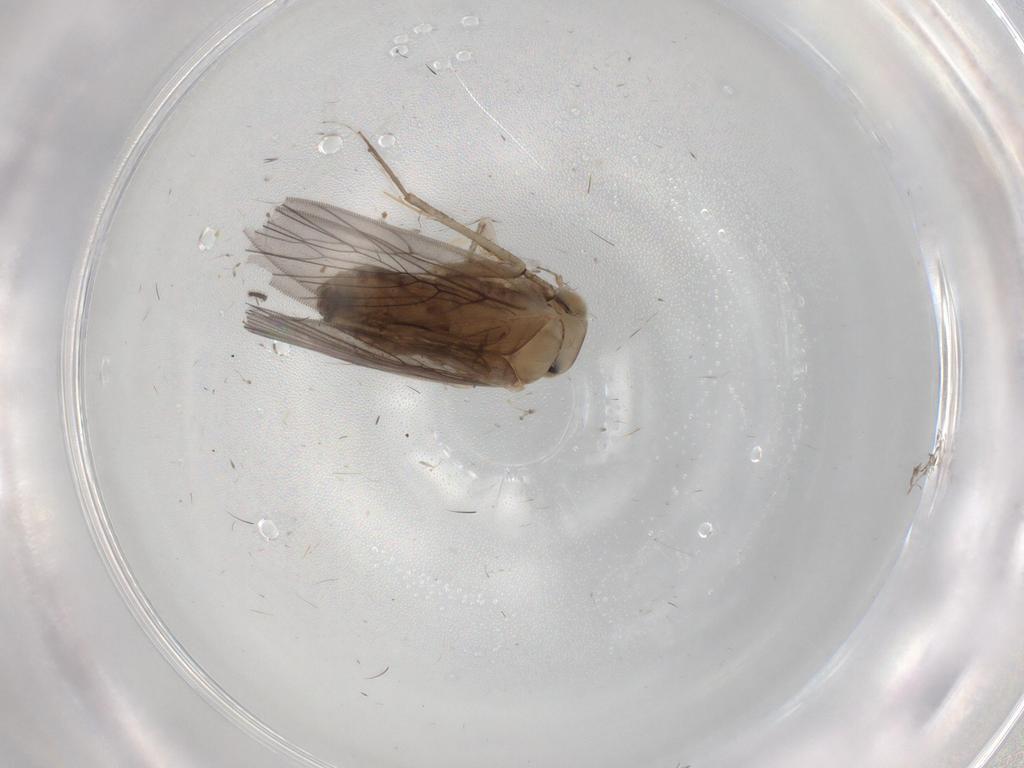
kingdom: Animalia
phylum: Arthropoda
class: Insecta
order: Psocodea
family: Lepidopsocidae
